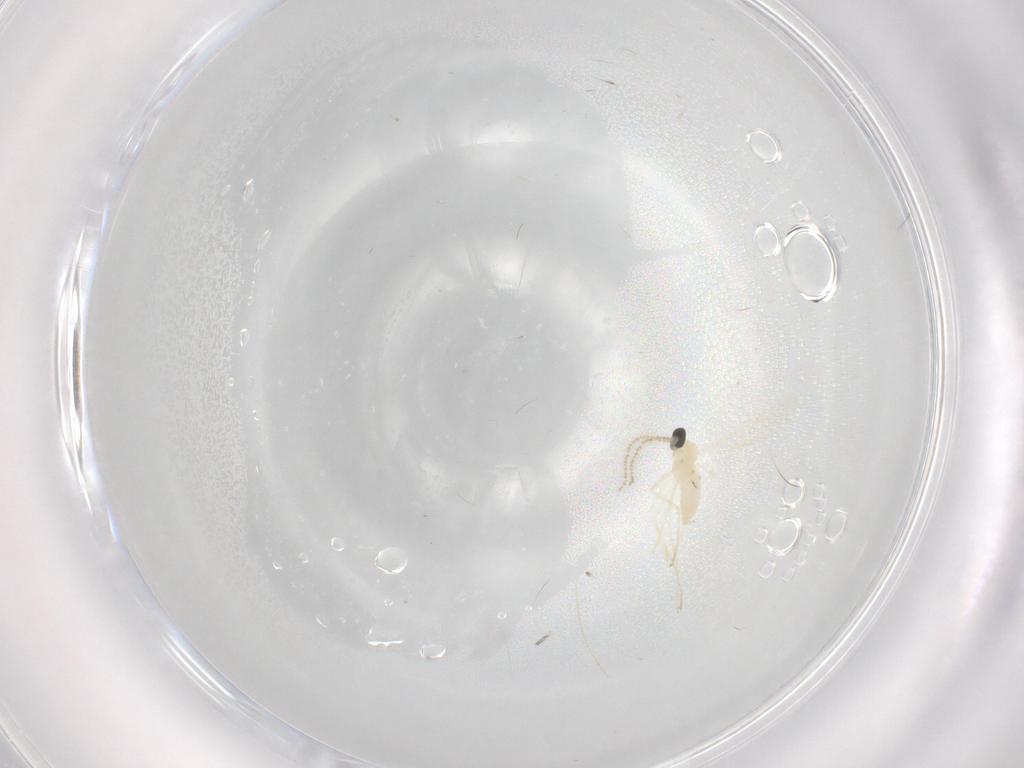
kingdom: Animalia
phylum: Arthropoda
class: Insecta
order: Diptera
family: Cecidomyiidae
